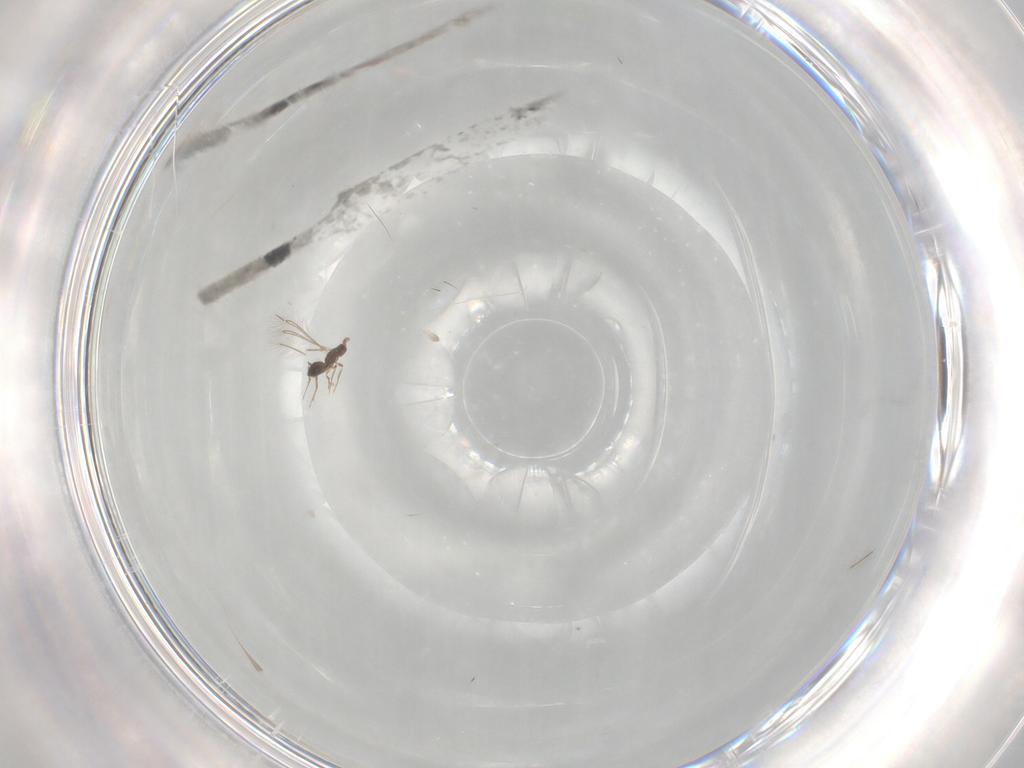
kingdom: Animalia
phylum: Arthropoda
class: Insecta
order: Hymenoptera
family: Mymaridae
